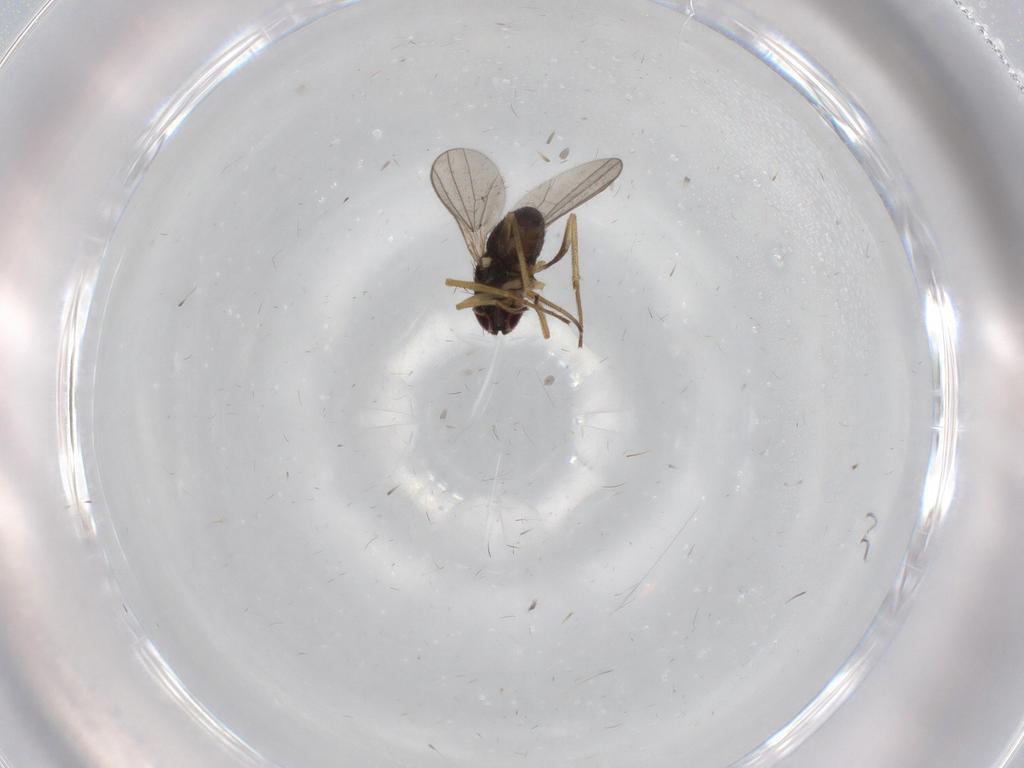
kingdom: Animalia
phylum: Arthropoda
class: Insecta
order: Diptera
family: Dolichopodidae
